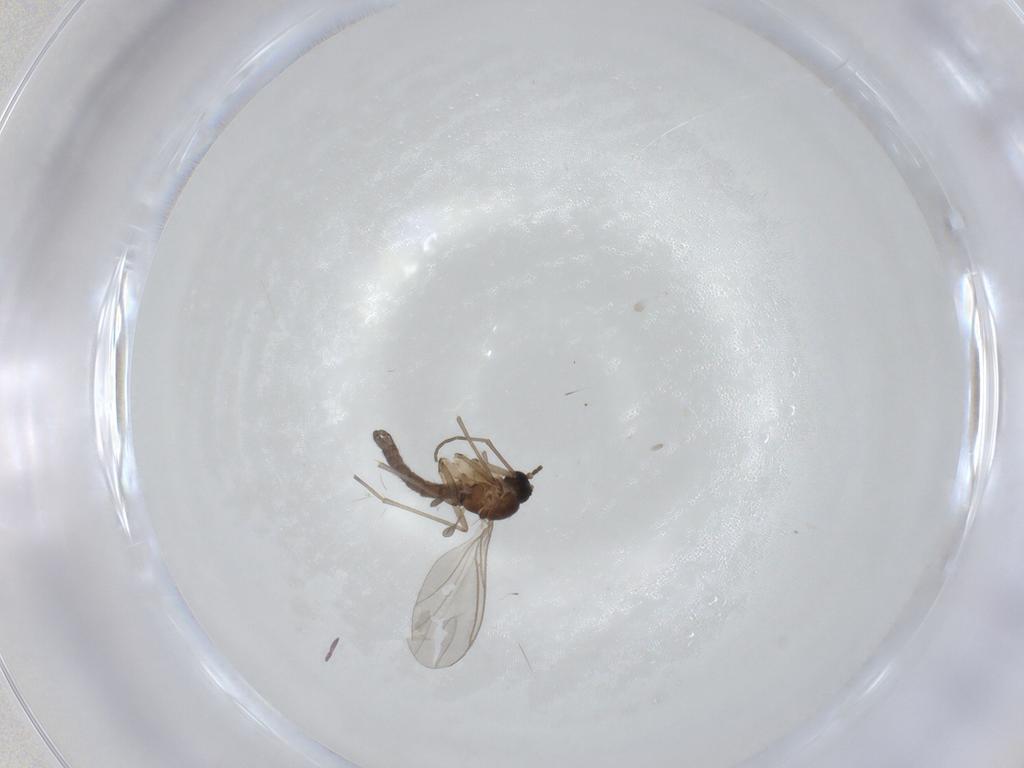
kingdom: Animalia
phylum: Arthropoda
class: Insecta
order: Diptera
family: Sciaridae
